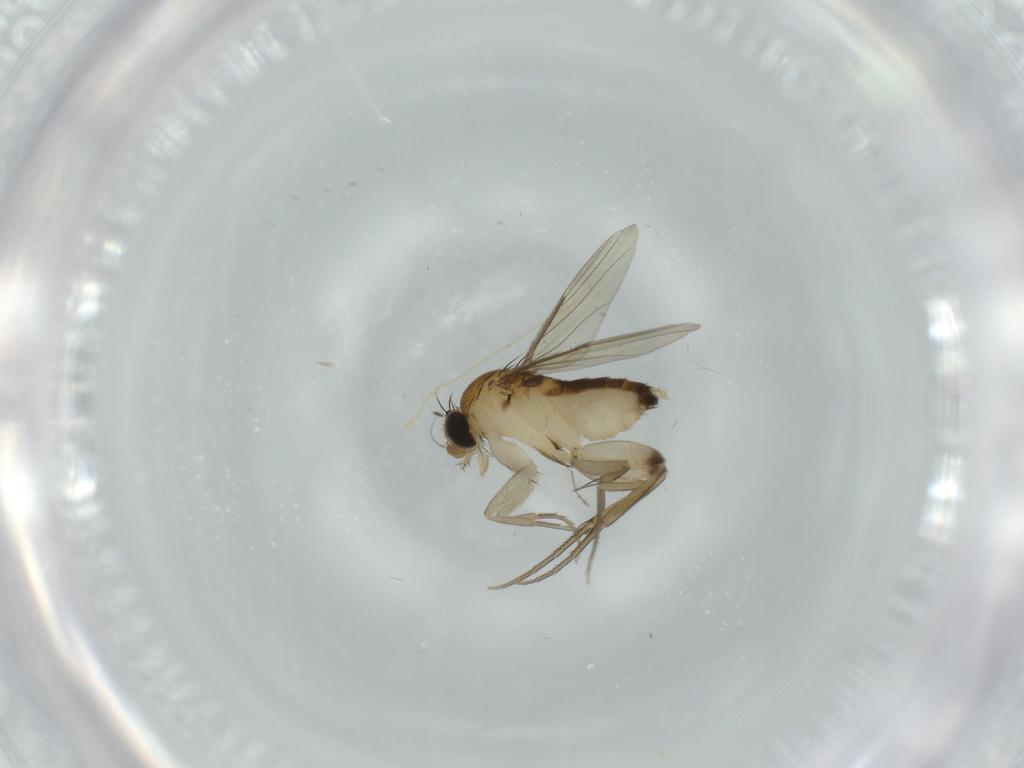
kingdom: Animalia
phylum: Arthropoda
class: Insecta
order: Diptera
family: Phoridae
